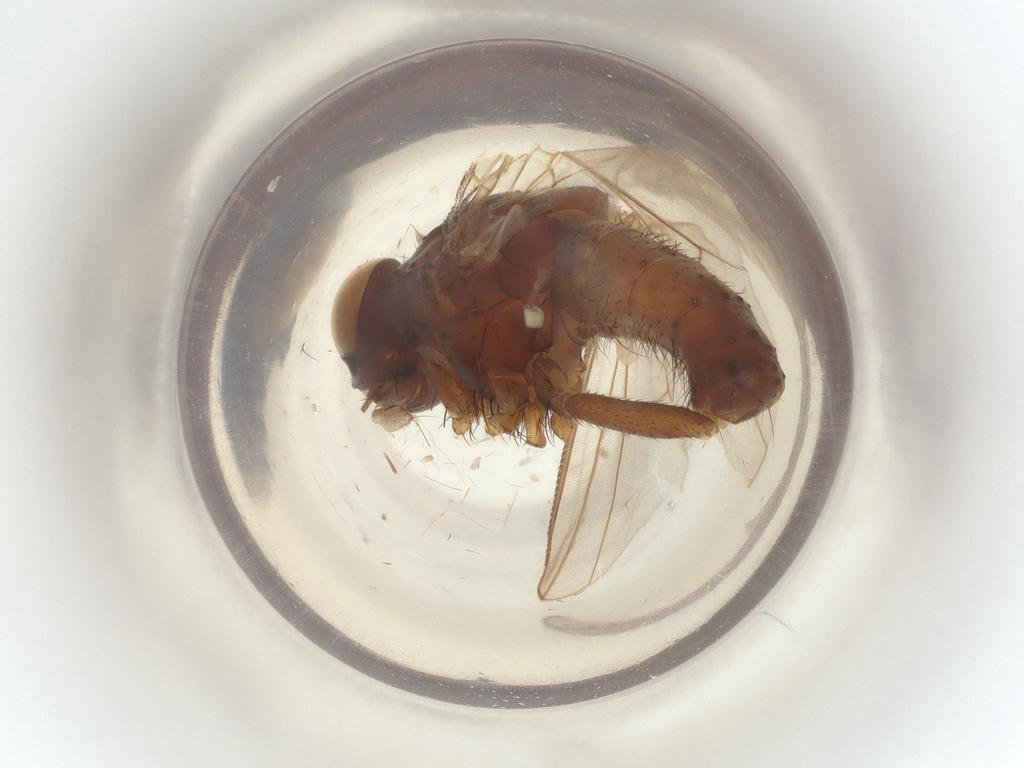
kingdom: Animalia
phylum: Arthropoda
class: Insecta
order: Diptera
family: Muscidae
